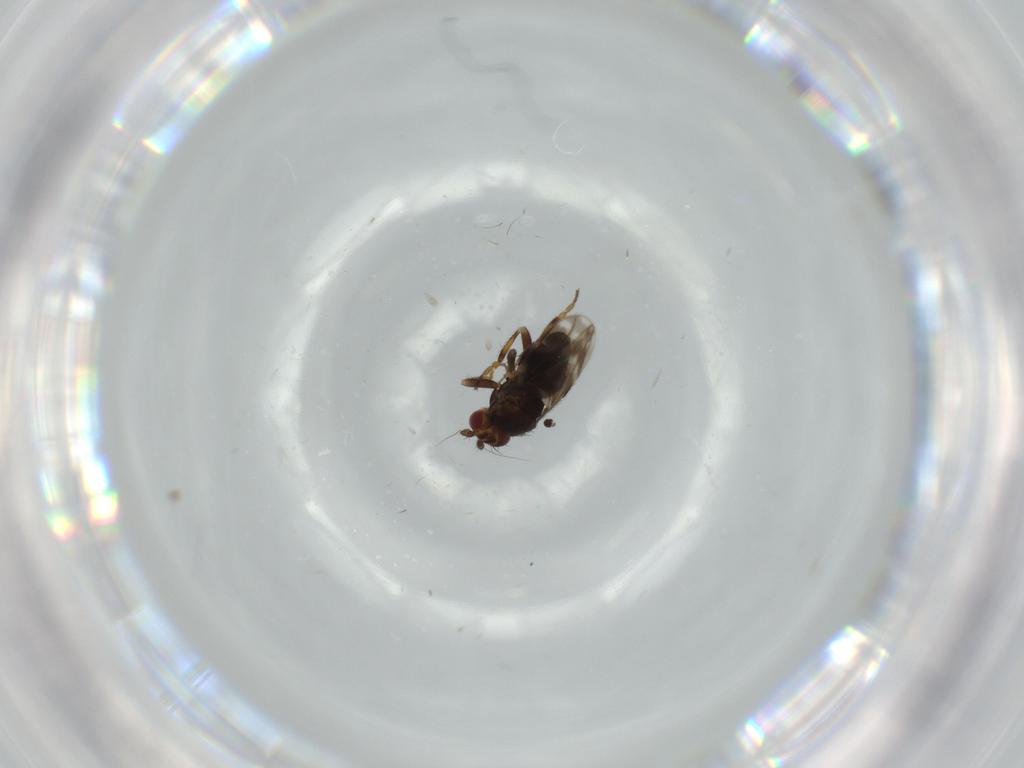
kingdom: Animalia
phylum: Arthropoda
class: Insecta
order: Diptera
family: Sphaeroceridae
